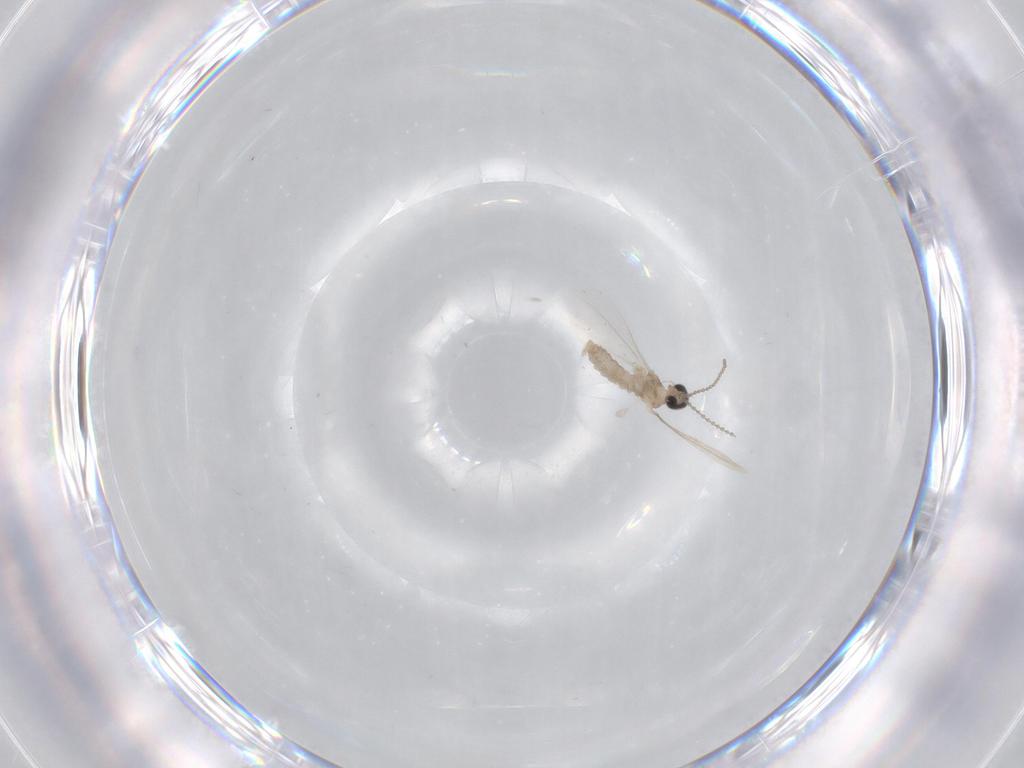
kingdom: Animalia
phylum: Arthropoda
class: Insecta
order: Diptera
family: Cecidomyiidae
